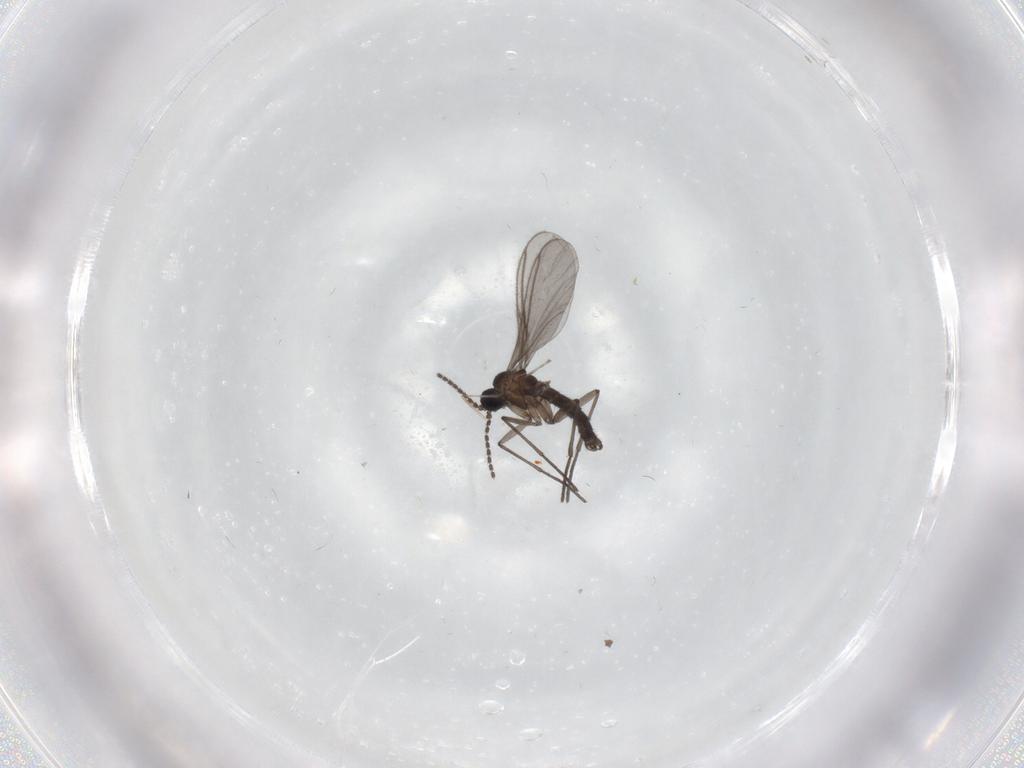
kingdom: Animalia
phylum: Arthropoda
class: Insecta
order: Diptera
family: Cecidomyiidae
